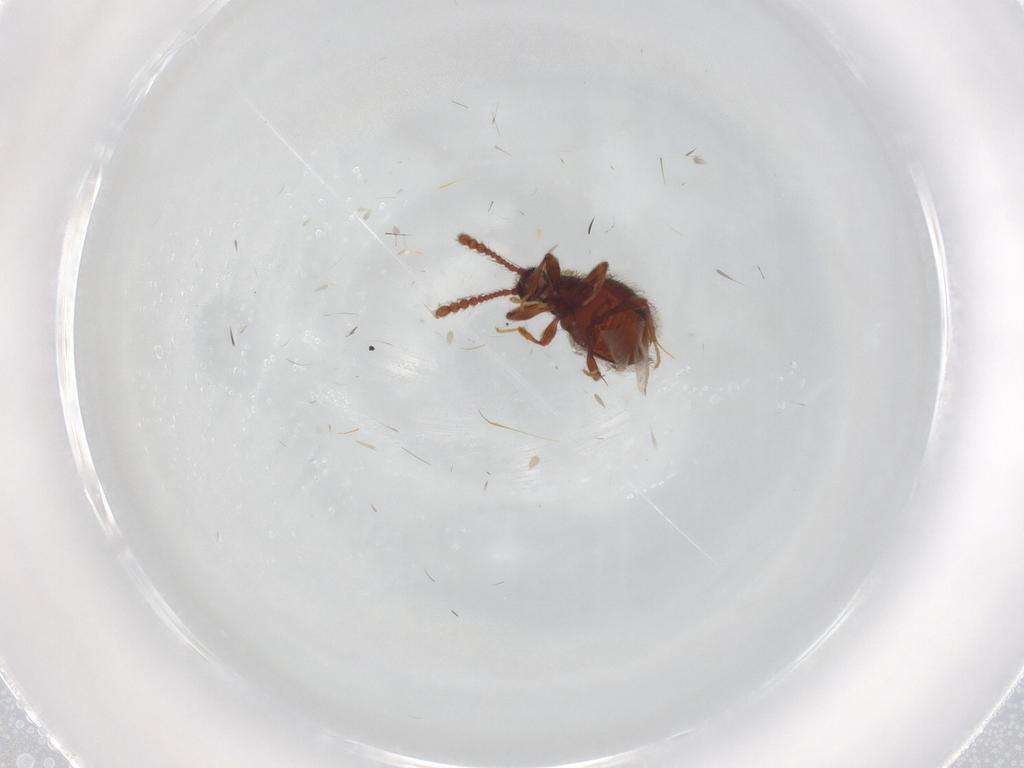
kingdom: Animalia
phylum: Arthropoda
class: Insecta
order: Coleoptera
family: Staphylinidae
